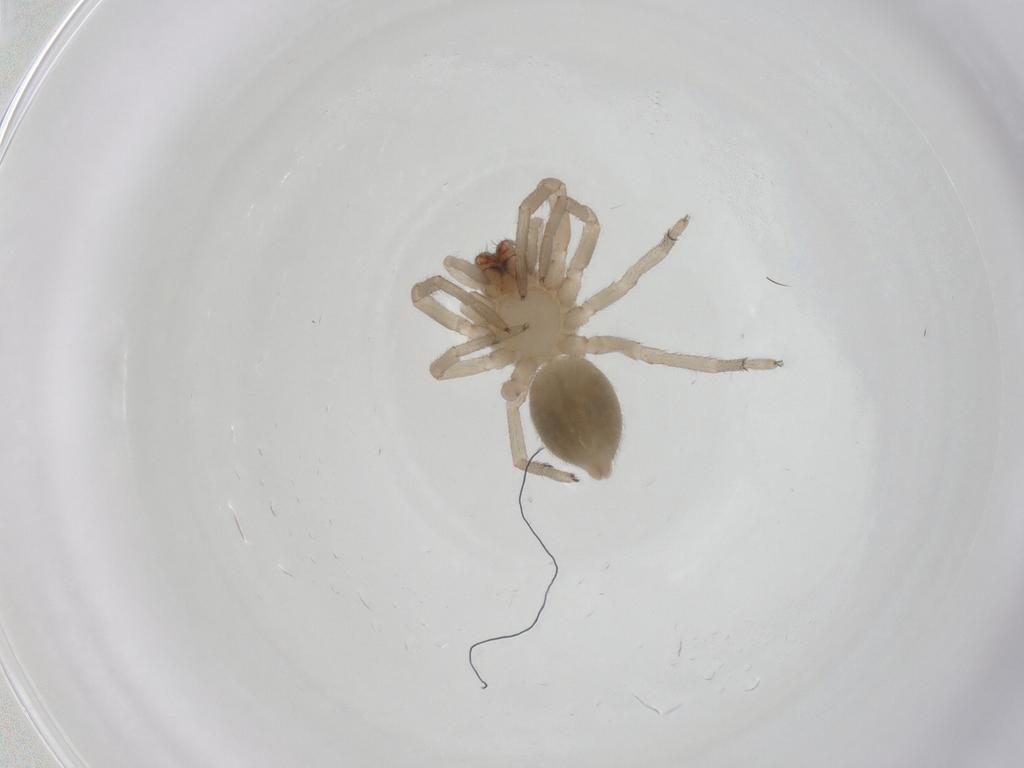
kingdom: Animalia
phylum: Arthropoda
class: Arachnida
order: Araneae
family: Trachelidae
